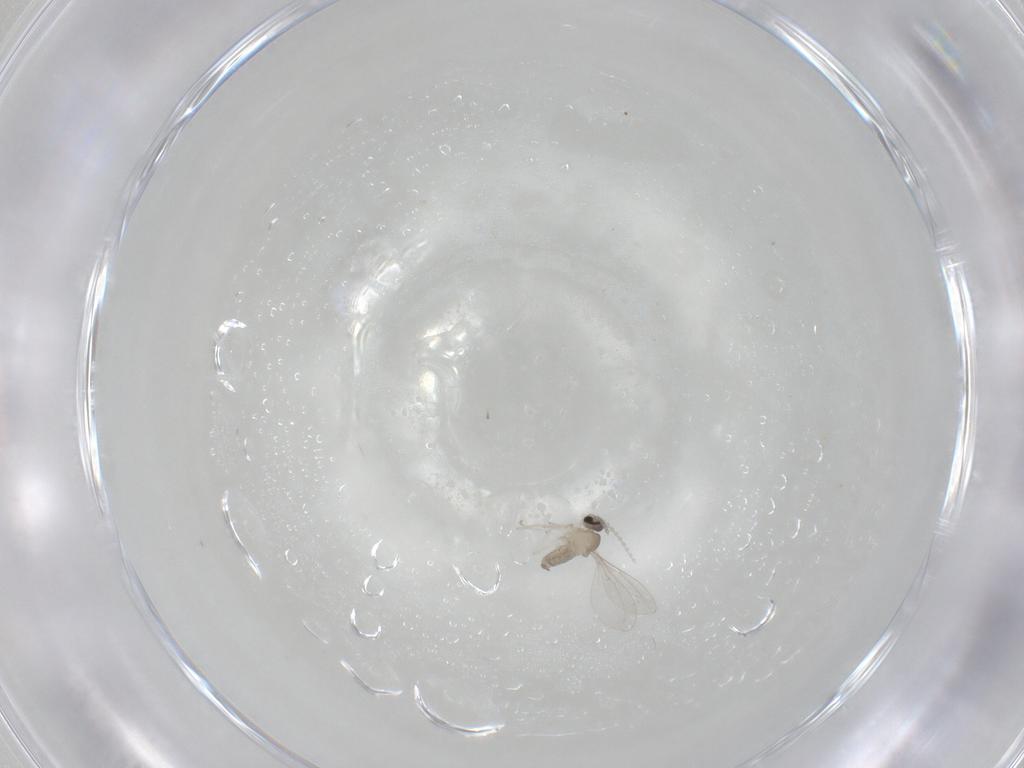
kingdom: Animalia
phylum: Arthropoda
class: Insecta
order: Diptera
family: Cecidomyiidae
